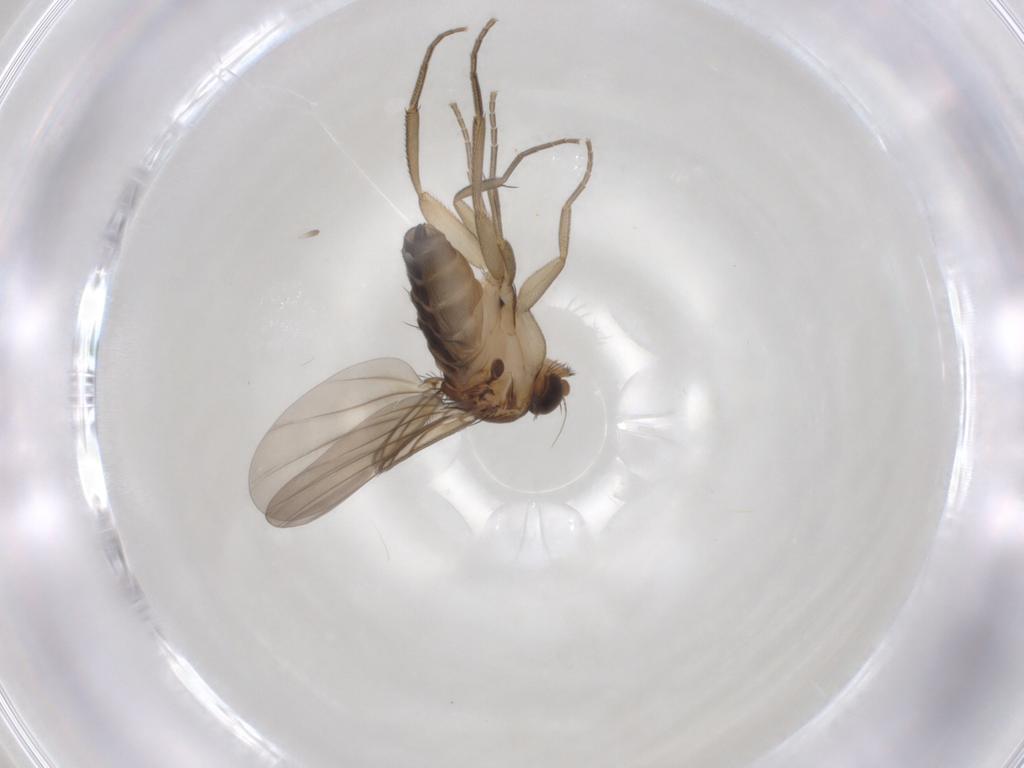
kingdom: Animalia
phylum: Arthropoda
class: Insecta
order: Diptera
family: Phoridae
